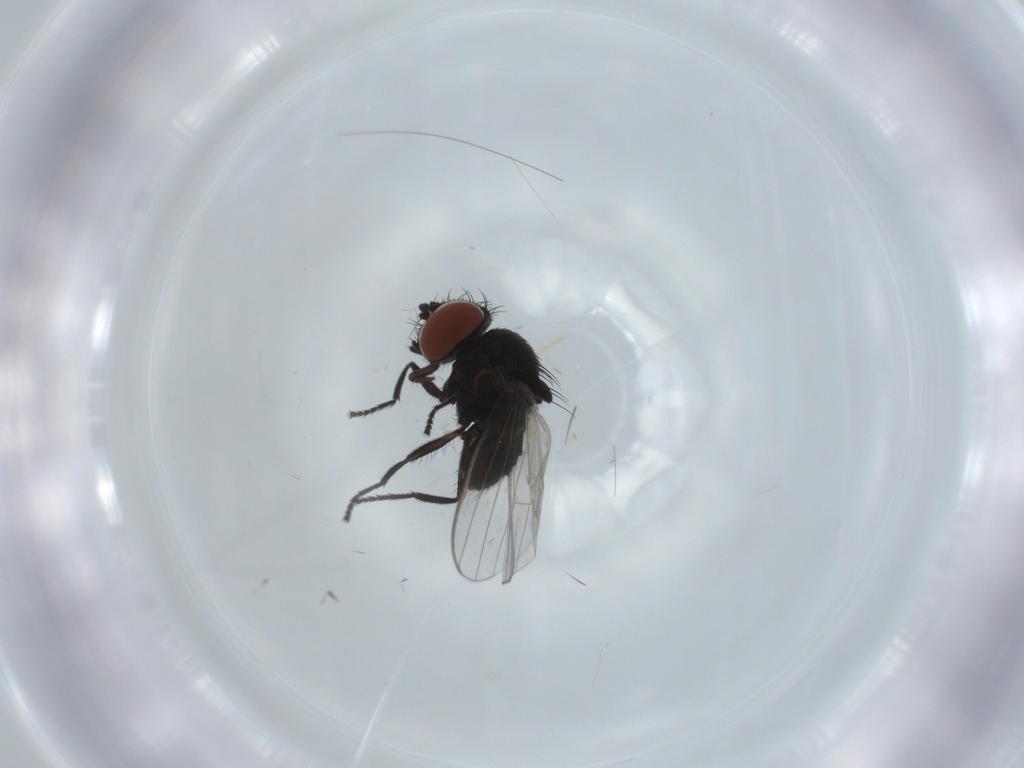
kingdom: Animalia
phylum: Arthropoda
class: Insecta
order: Diptera
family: Milichiidae
